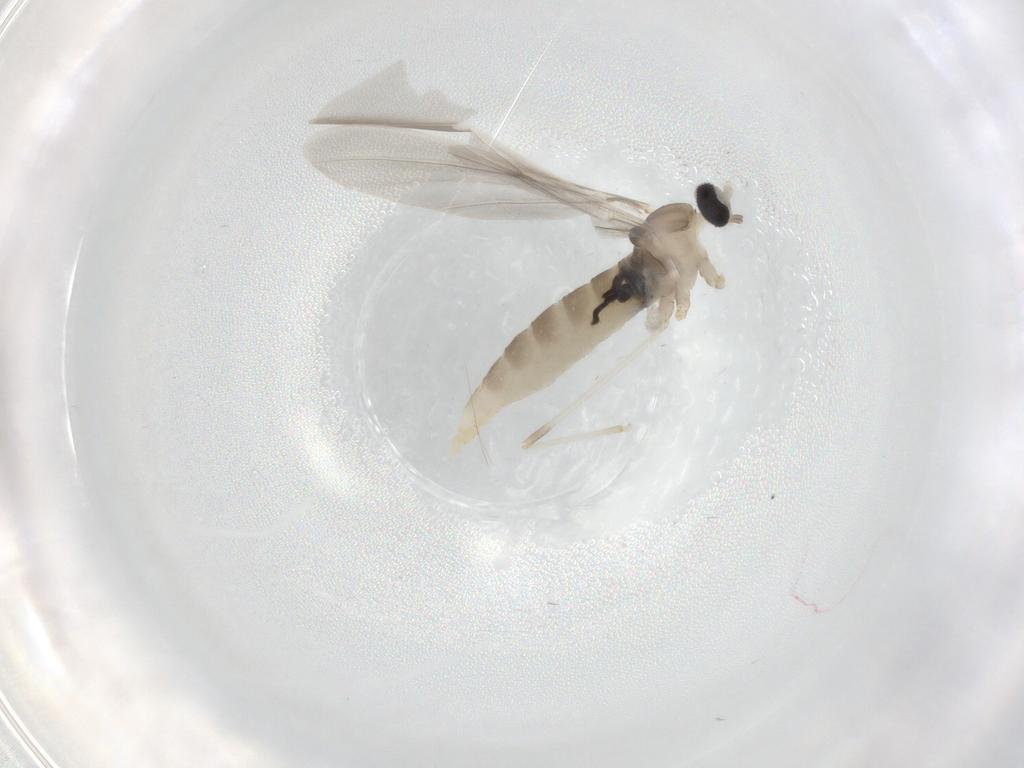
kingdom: Animalia
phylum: Arthropoda
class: Insecta
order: Diptera
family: Cecidomyiidae
